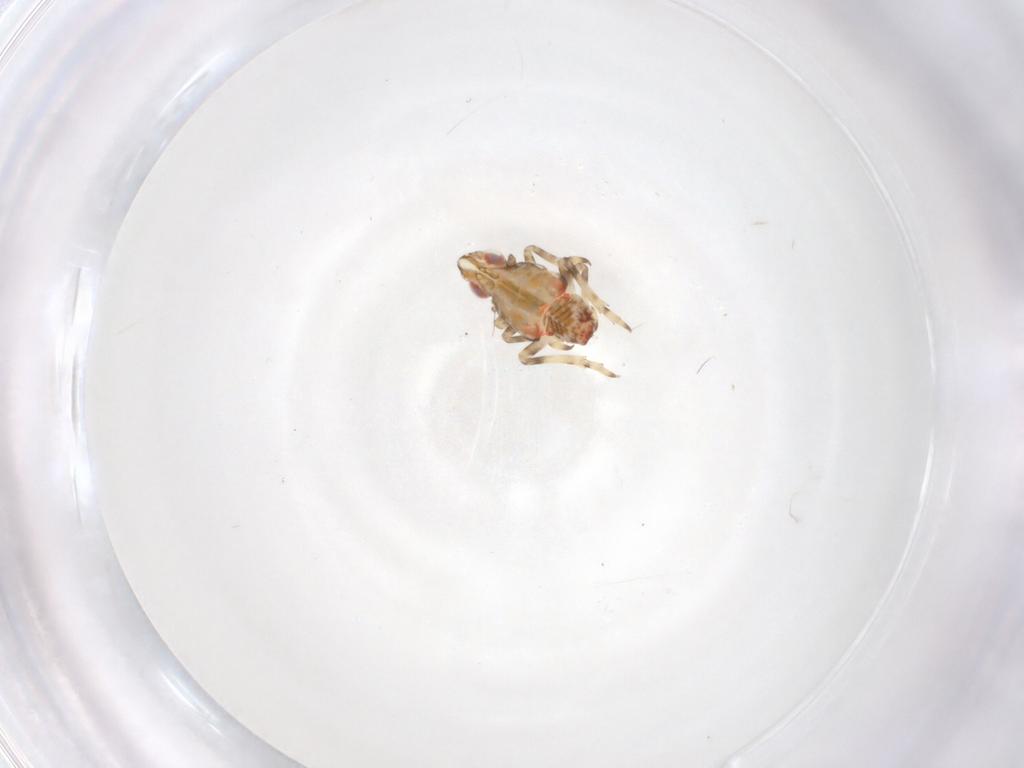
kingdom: Animalia
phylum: Arthropoda
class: Insecta
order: Hemiptera
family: Tropiduchidae
